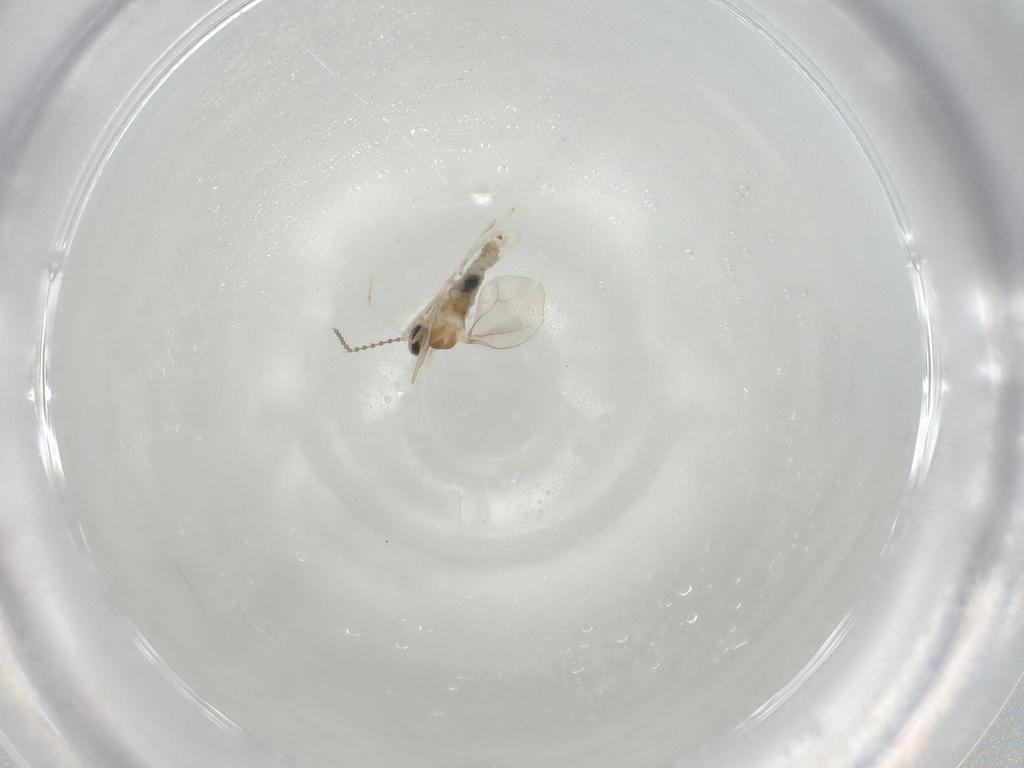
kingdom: Animalia
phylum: Arthropoda
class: Insecta
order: Diptera
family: Cecidomyiidae
